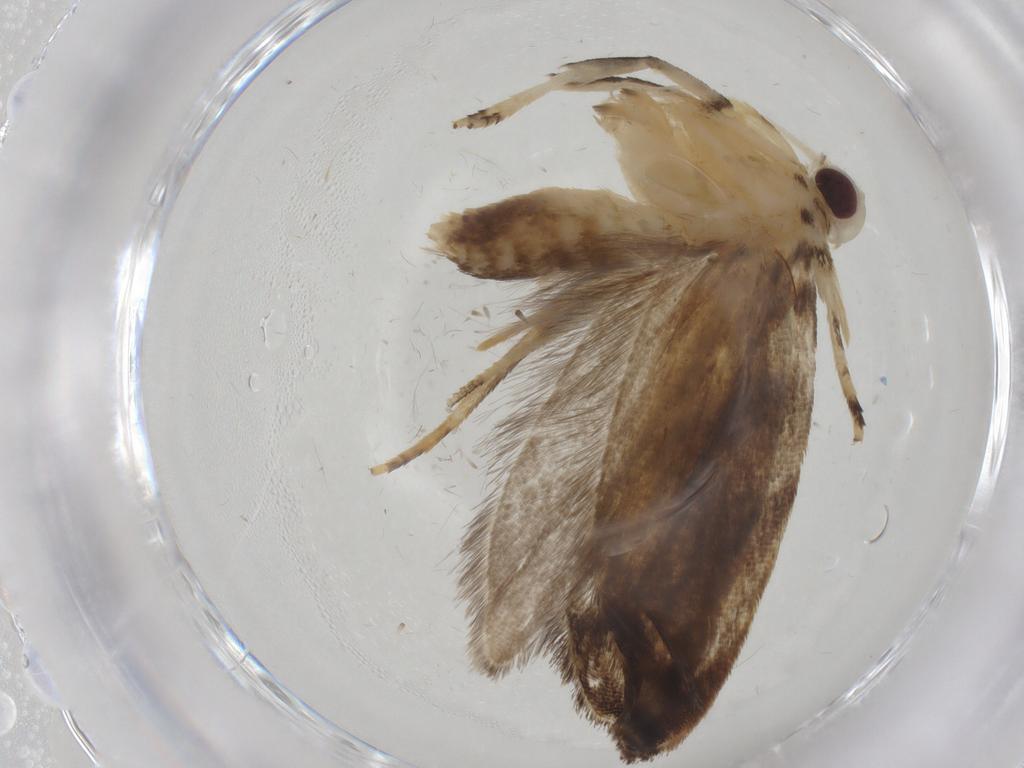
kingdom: Animalia
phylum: Arthropoda
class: Insecta
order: Lepidoptera
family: Gelechiidae
